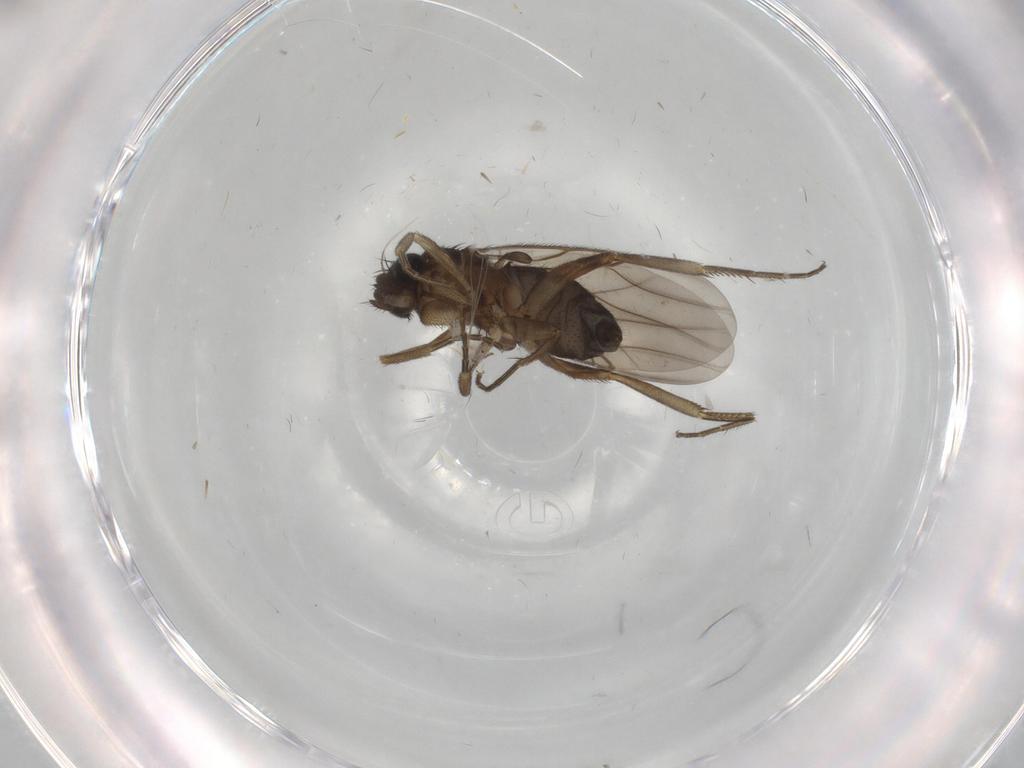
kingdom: Animalia
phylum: Arthropoda
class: Insecta
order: Diptera
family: Phoridae
